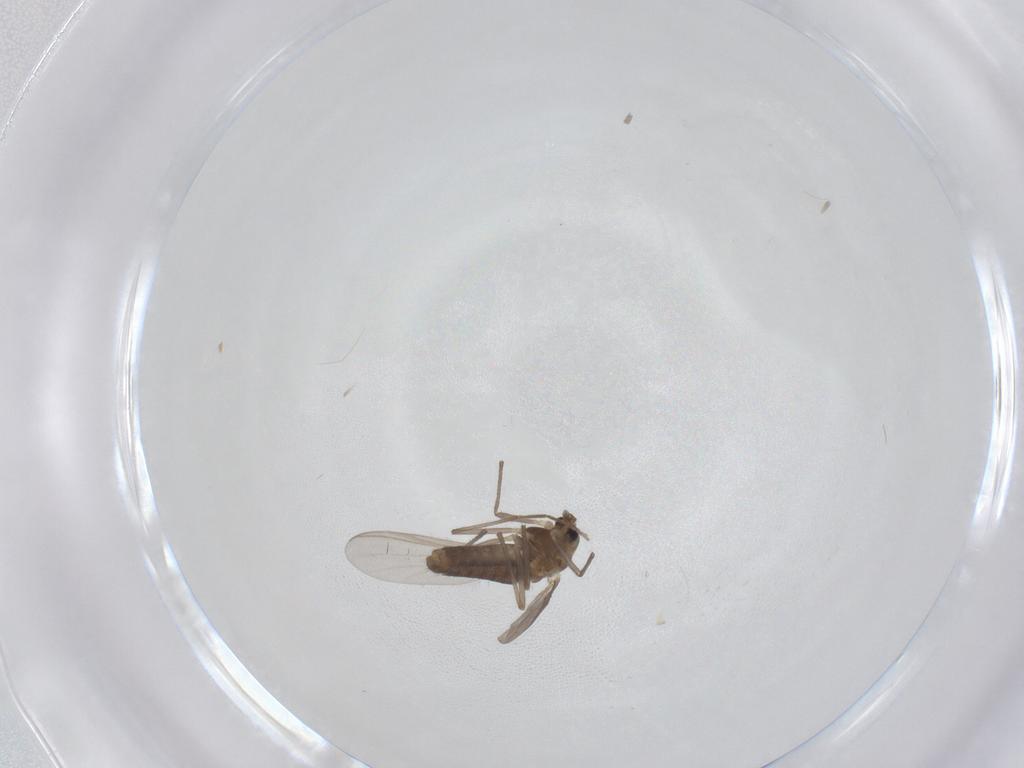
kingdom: Animalia
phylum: Arthropoda
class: Insecta
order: Diptera
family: Chironomidae
